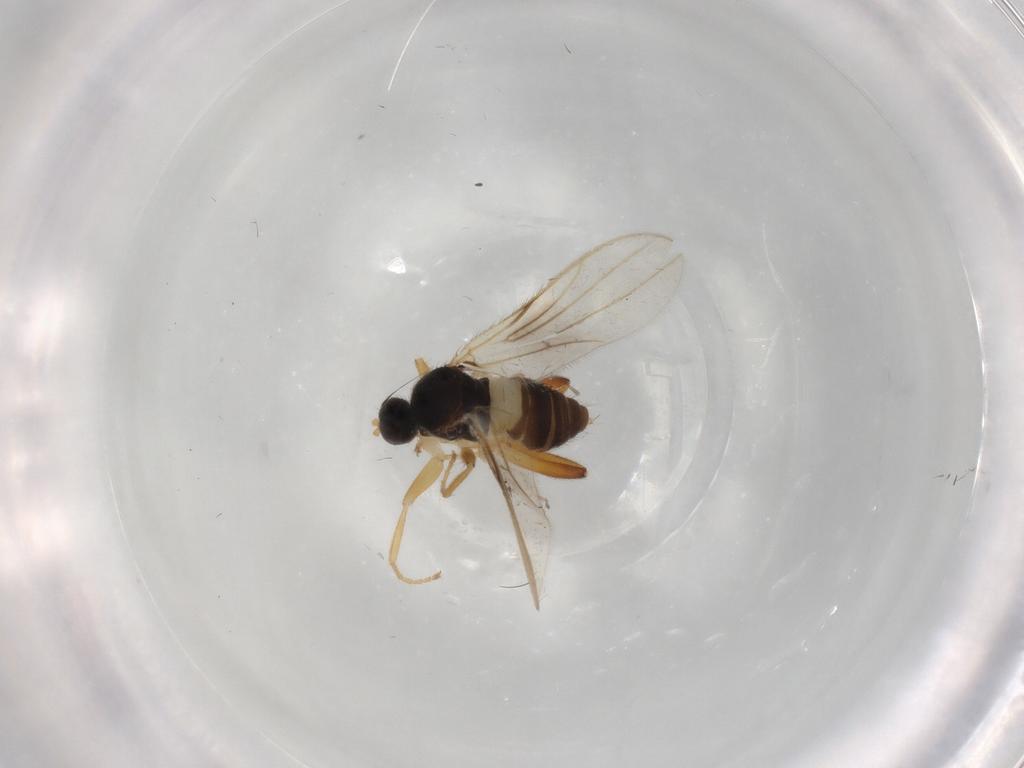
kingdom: Animalia
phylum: Arthropoda
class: Insecta
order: Diptera
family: Hybotidae
